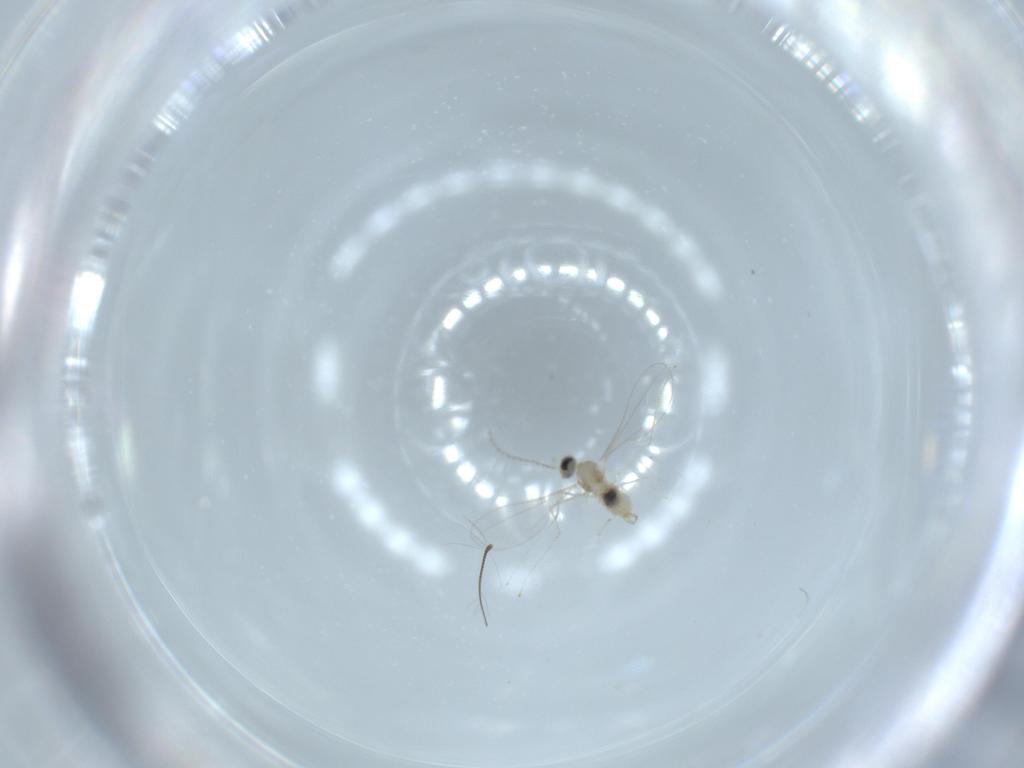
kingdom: Animalia
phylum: Arthropoda
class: Insecta
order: Diptera
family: Cecidomyiidae
